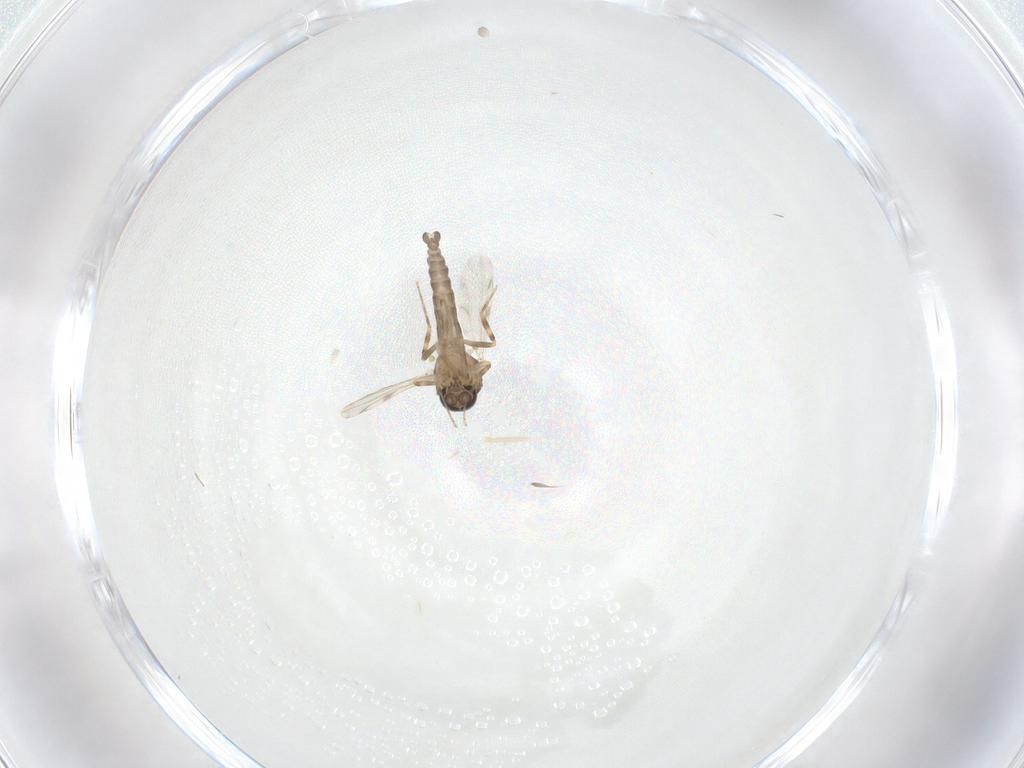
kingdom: Animalia
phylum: Arthropoda
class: Insecta
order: Diptera
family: Ceratopogonidae
